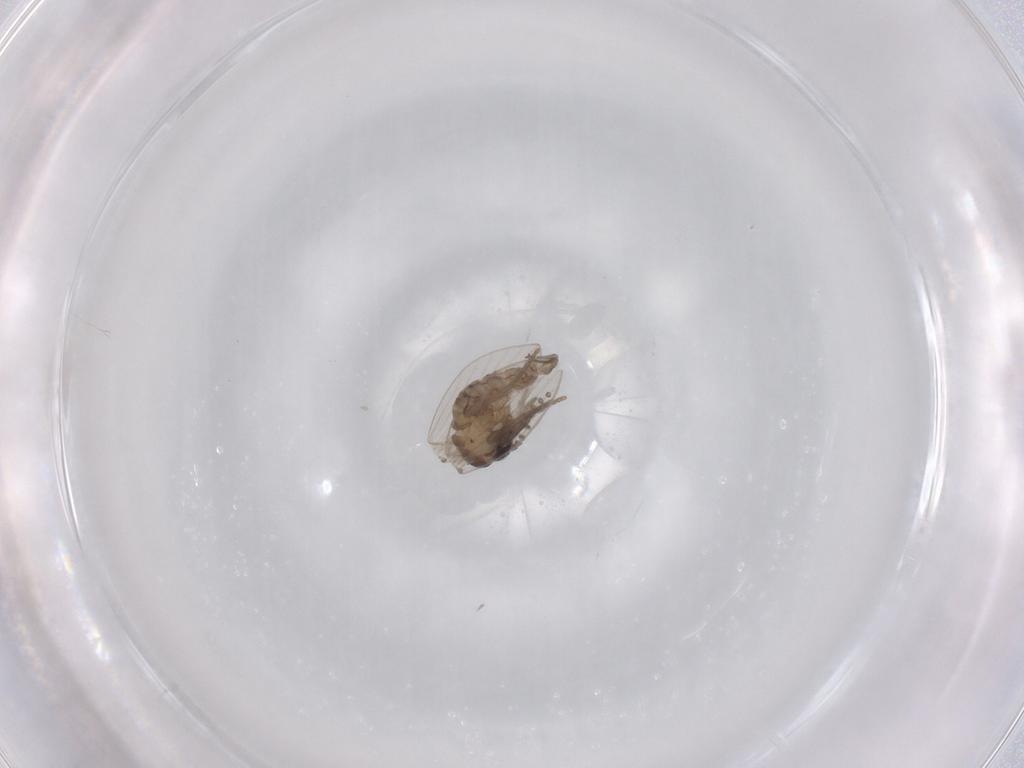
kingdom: Animalia
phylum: Arthropoda
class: Insecta
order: Diptera
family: Psychodidae
